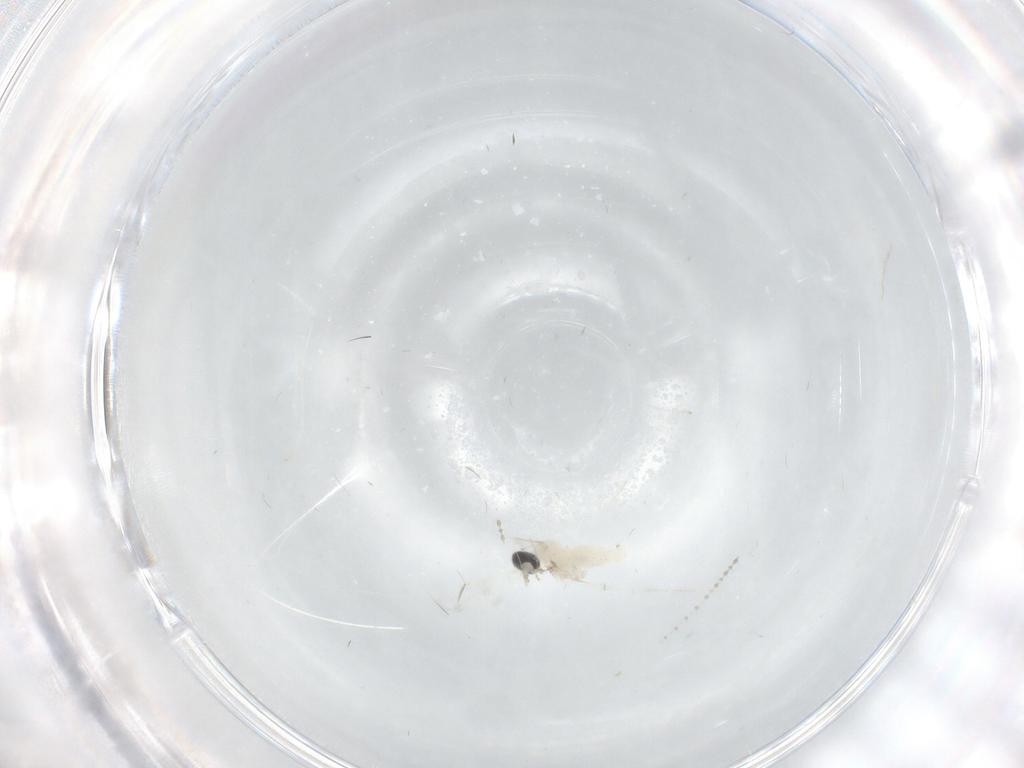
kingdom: Animalia
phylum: Arthropoda
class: Insecta
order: Diptera
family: Cecidomyiidae
